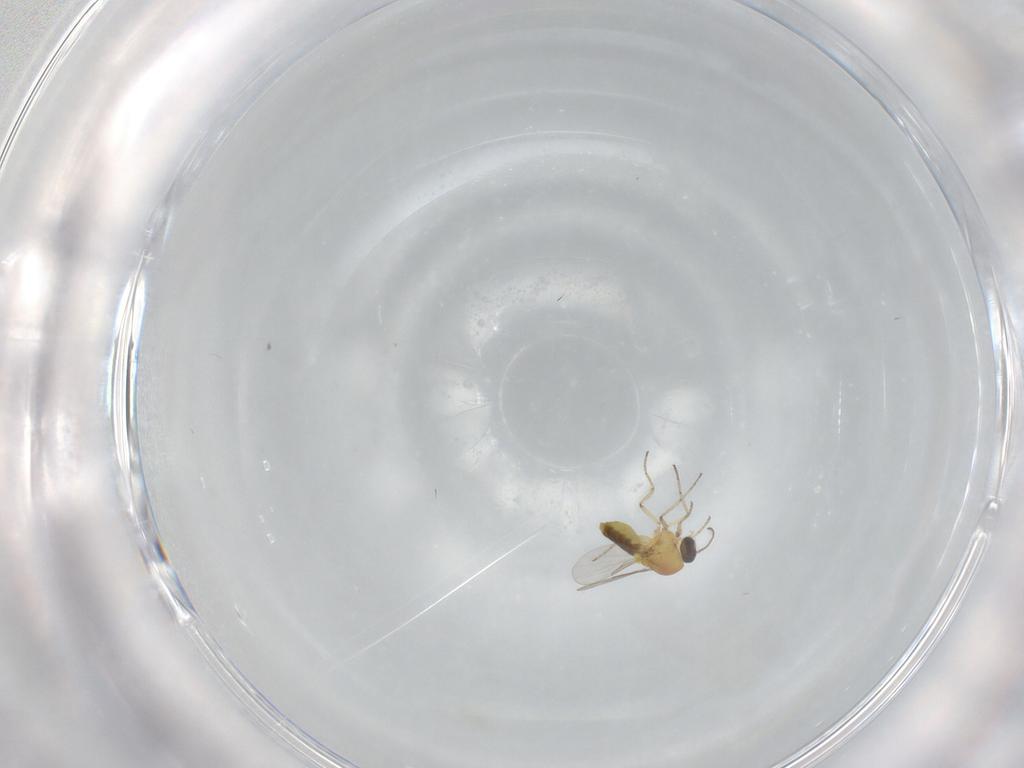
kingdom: Animalia
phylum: Arthropoda
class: Insecta
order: Diptera
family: Ceratopogonidae
